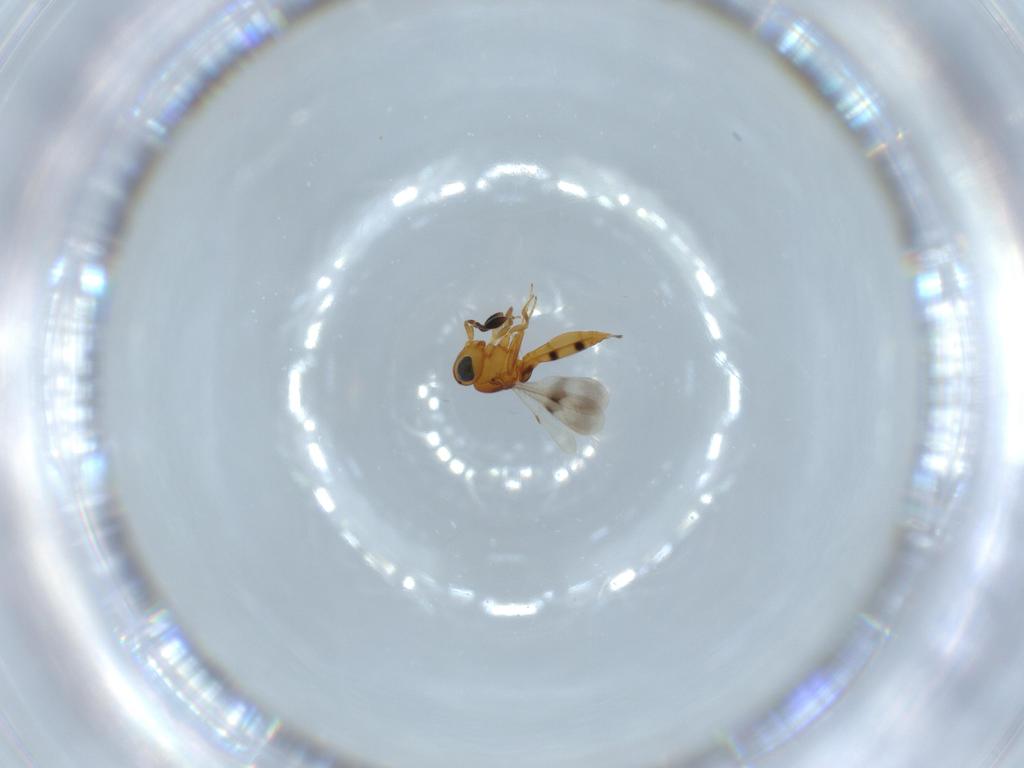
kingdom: Animalia
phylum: Arthropoda
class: Insecta
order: Hymenoptera
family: Scelionidae
